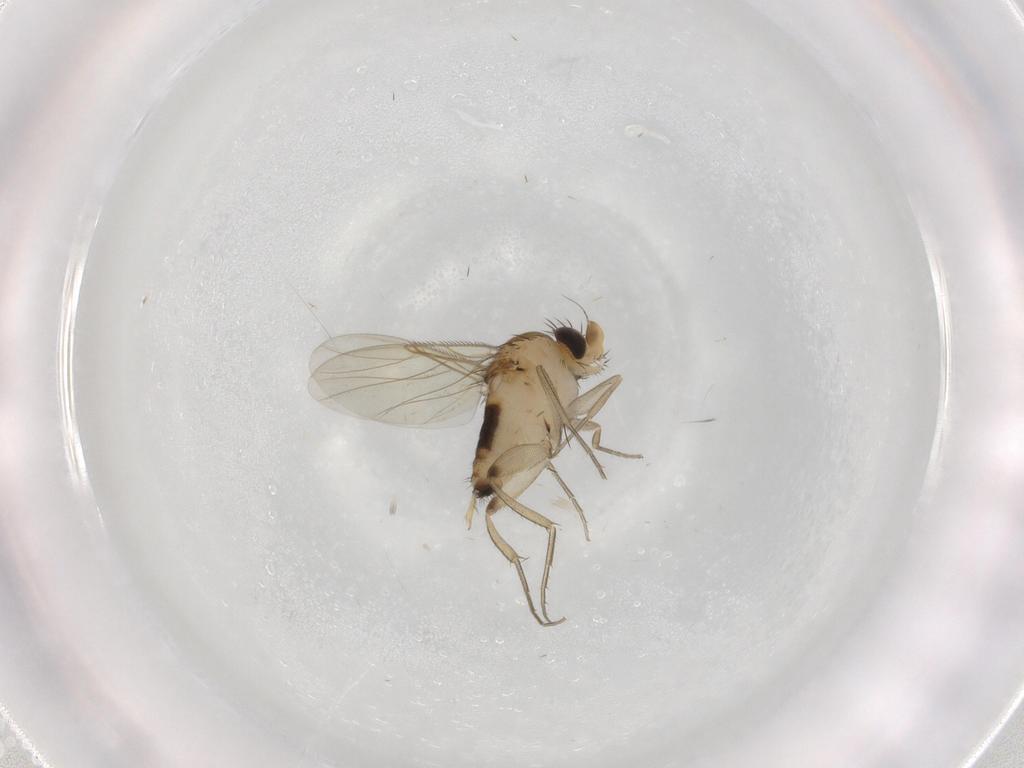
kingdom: Animalia
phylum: Arthropoda
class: Insecta
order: Diptera
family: Phoridae
